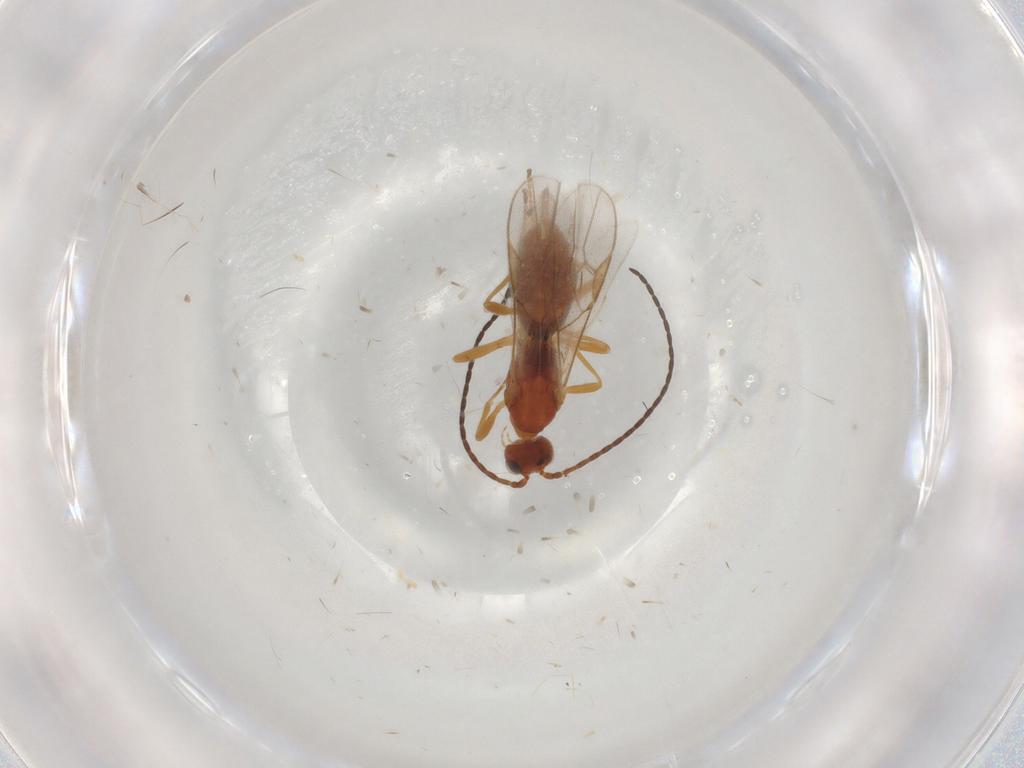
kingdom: Animalia
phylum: Arthropoda
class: Insecta
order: Hymenoptera
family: Braconidae
